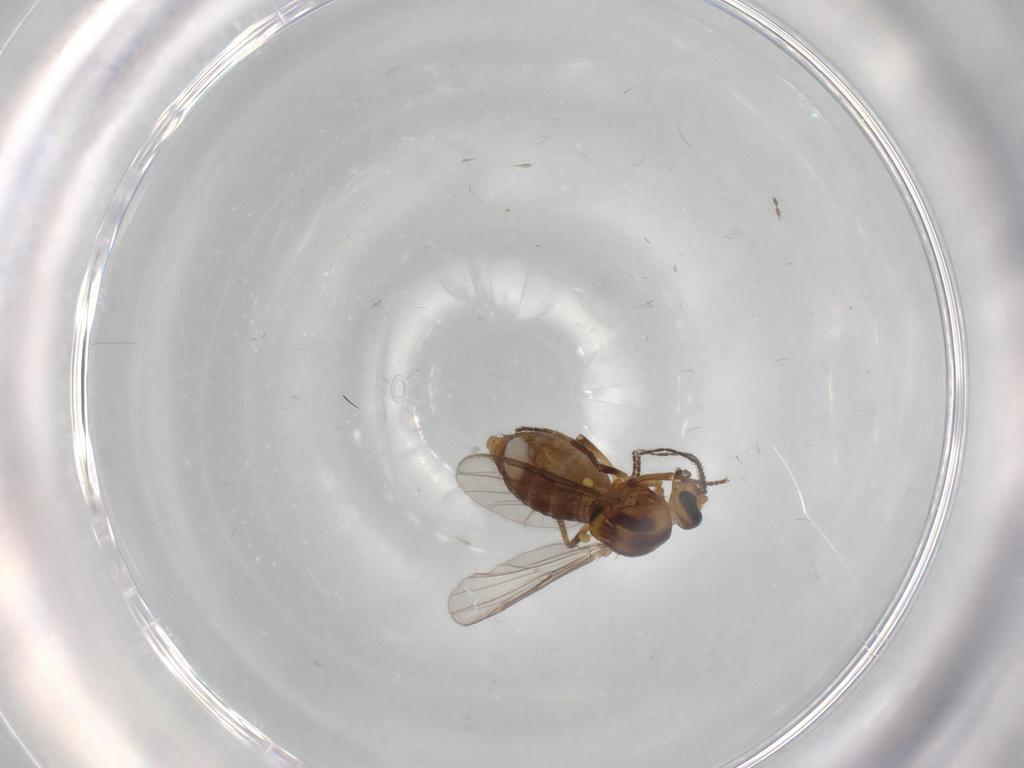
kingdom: Animalia
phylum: Arthropoda
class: Insecta
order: Diptera
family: Ceratopogonidae
